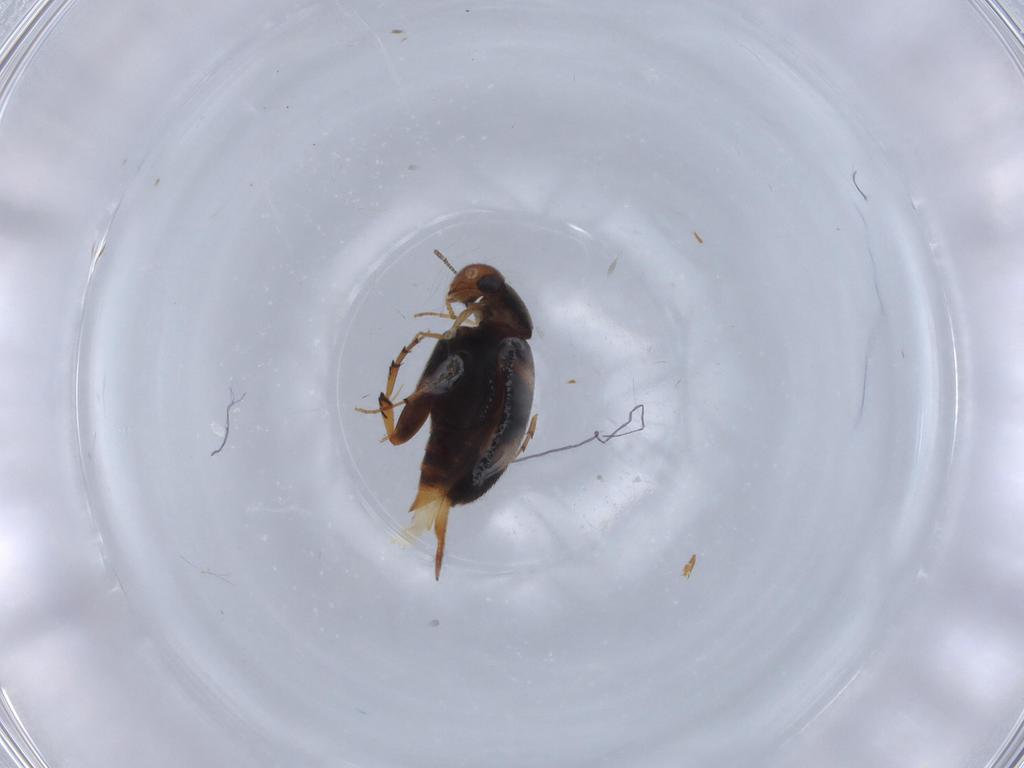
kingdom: Animalia
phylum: Arthropoda
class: Insecta
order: Coleoptera
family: Mordellidae
